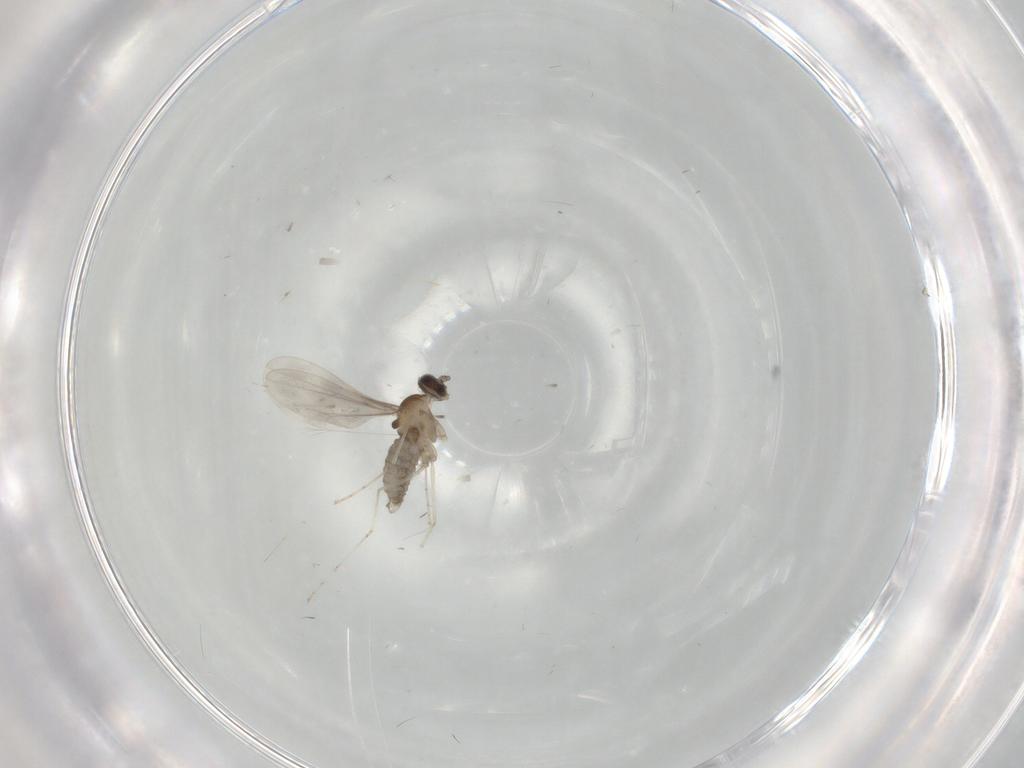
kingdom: Animalia
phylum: Arthropoda
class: Insecta
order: Diptera
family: Cecidomyiidae
